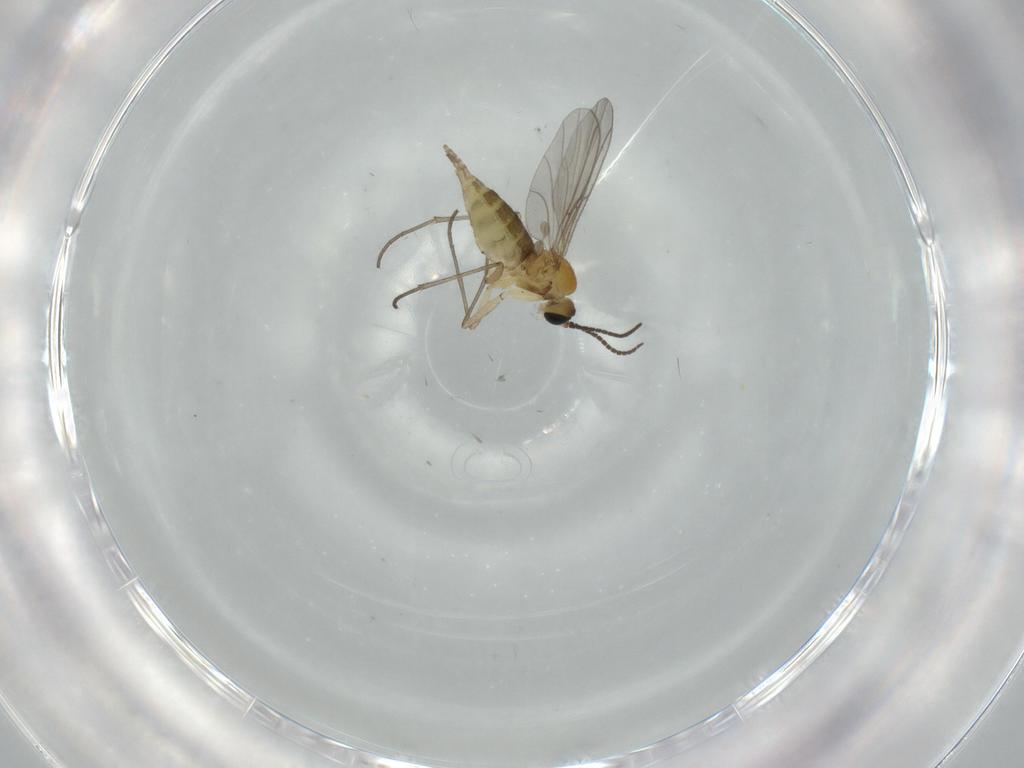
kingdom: Animalia
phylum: Arthropoda
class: Insecta
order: Diptera
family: Sciaridae
